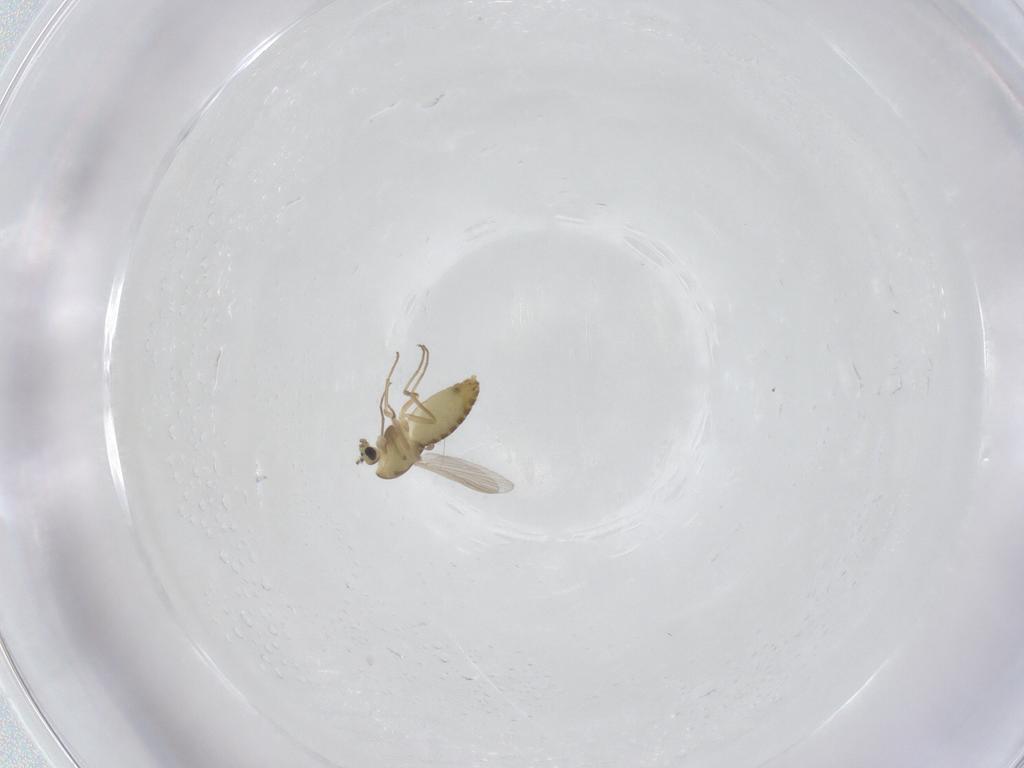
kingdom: Animalia
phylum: Arthropoda
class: Insecta
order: Diptera
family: Chironomidae
